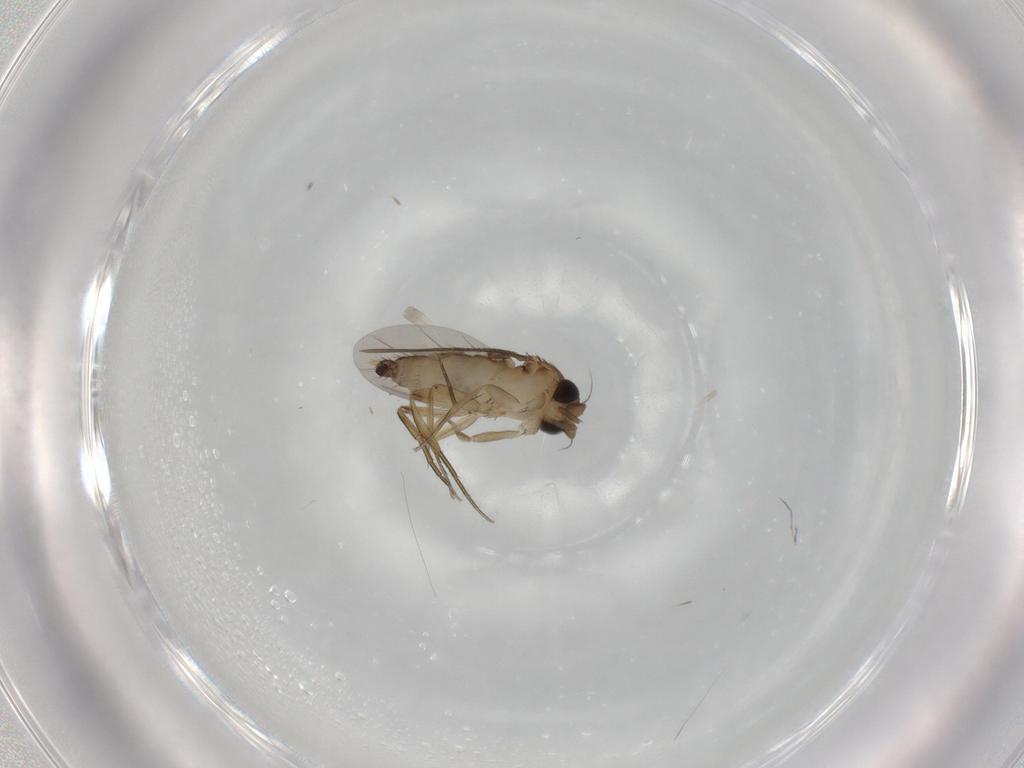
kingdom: Animalia
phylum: Arthropoda
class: Insecta
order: Diptera
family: Phoridae
